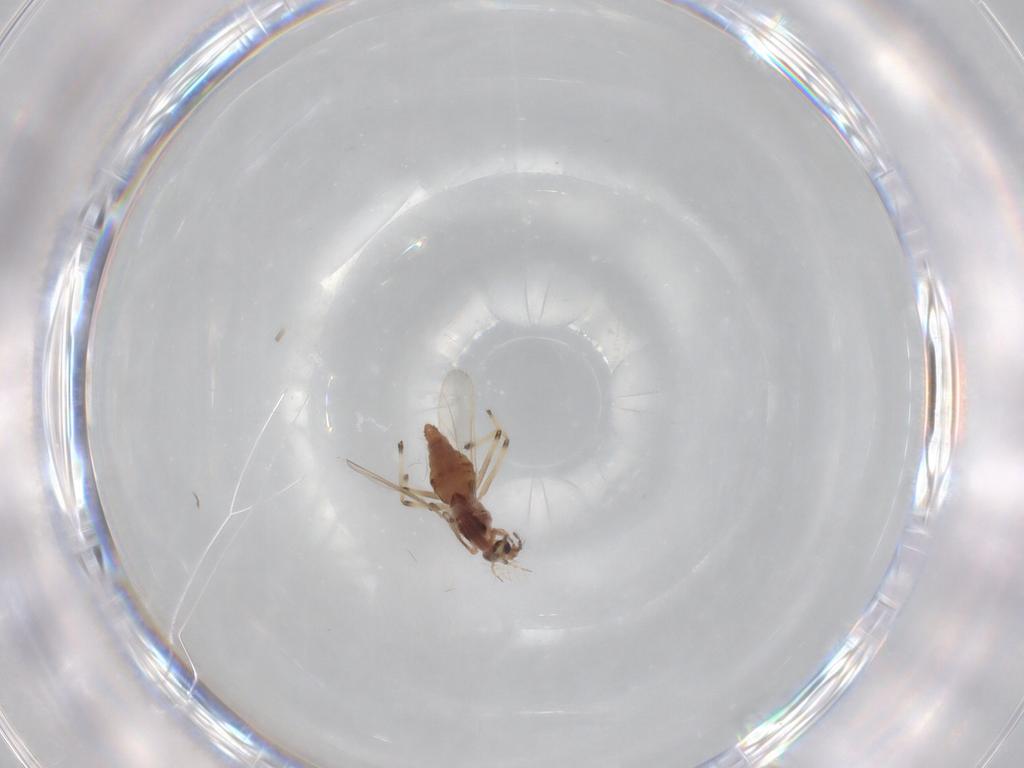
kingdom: Animalia
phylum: Arthropoda
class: Insecta
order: Diptera
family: Chironomidae
